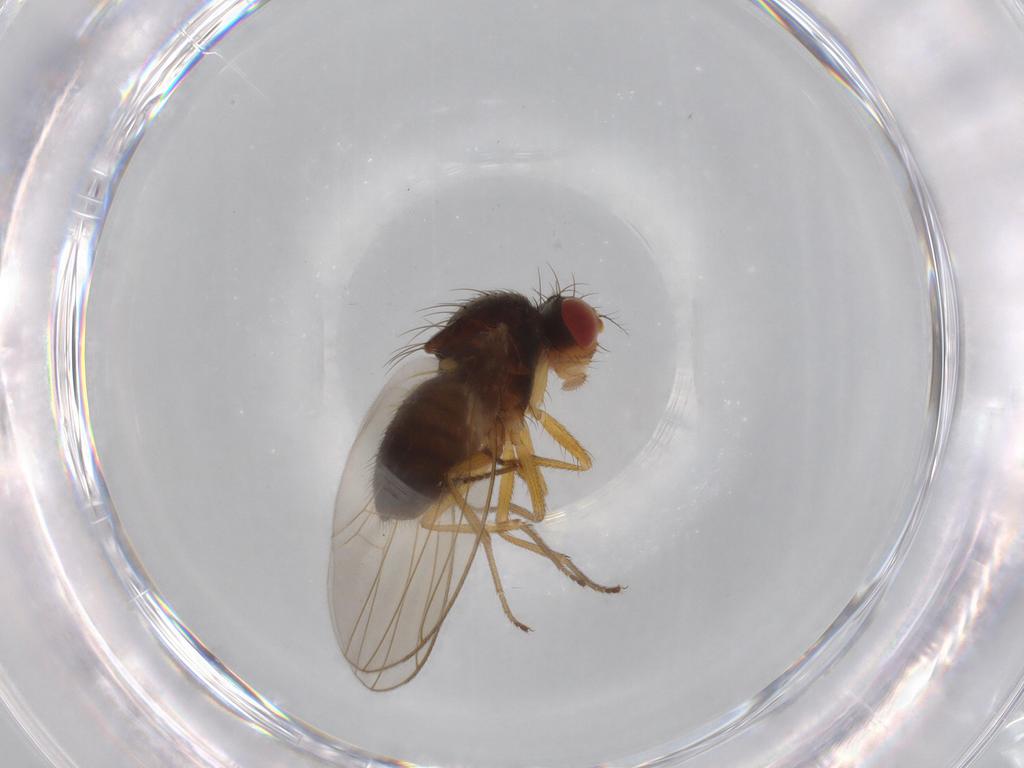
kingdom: Animalia
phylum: Arthropoda
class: Insecta
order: Diptera
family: Drosophilidae
